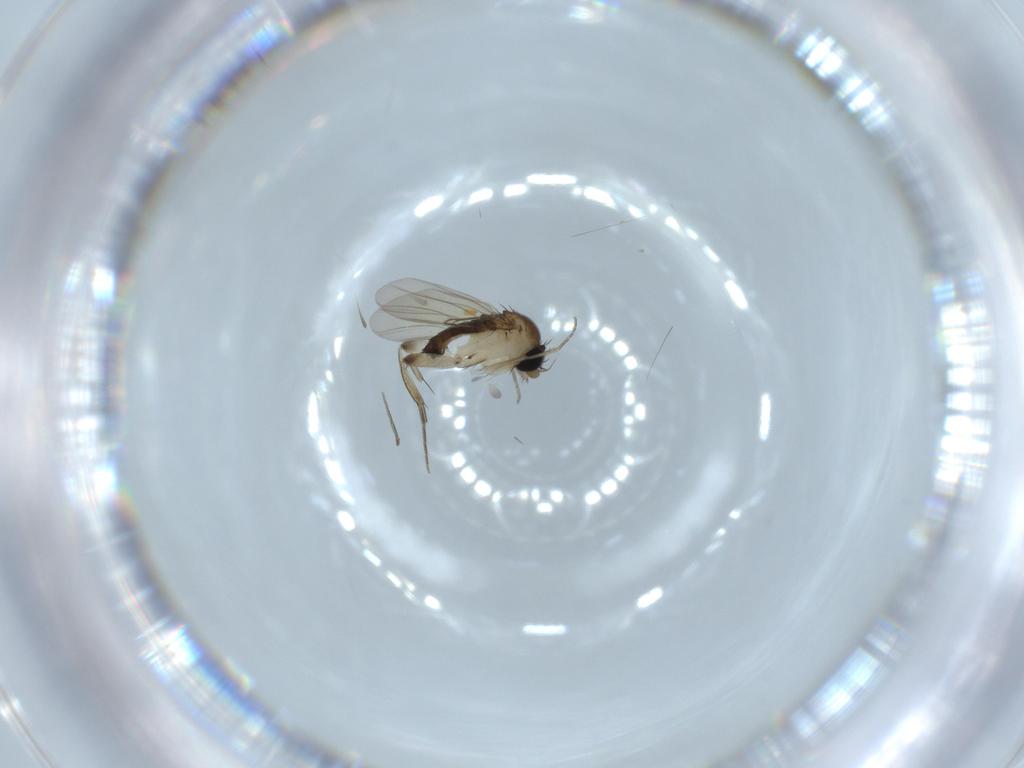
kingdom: Animalia
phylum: Arthropoda
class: Insecta
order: Diptera
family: Phoridae
